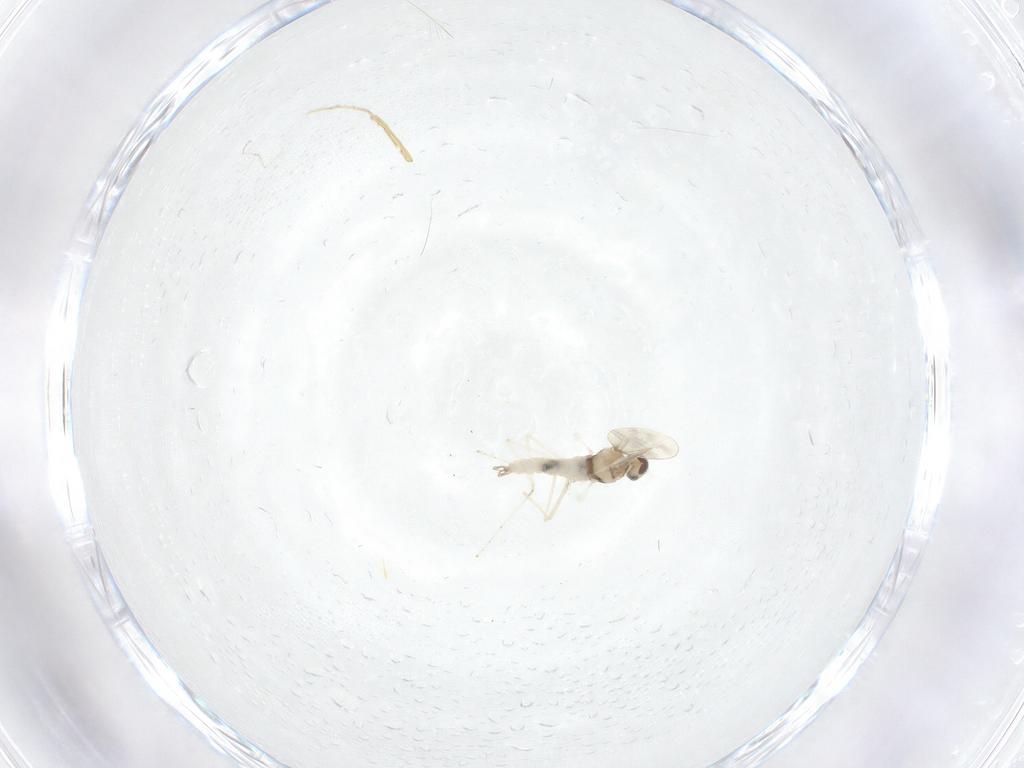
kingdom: Animalia
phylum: Arthropoda
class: Insecta
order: Diptera
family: Cecidomyiidae
